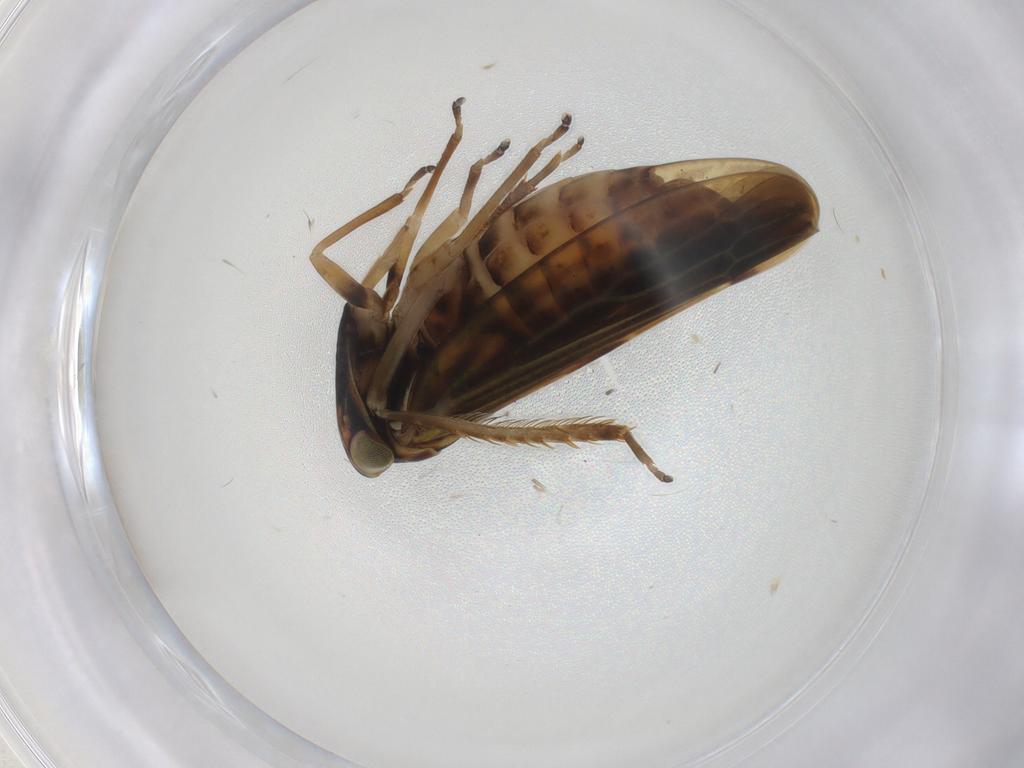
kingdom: Animalia
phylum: Arthropoda
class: Insecta
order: Hemiptera
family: Cicadellidae
